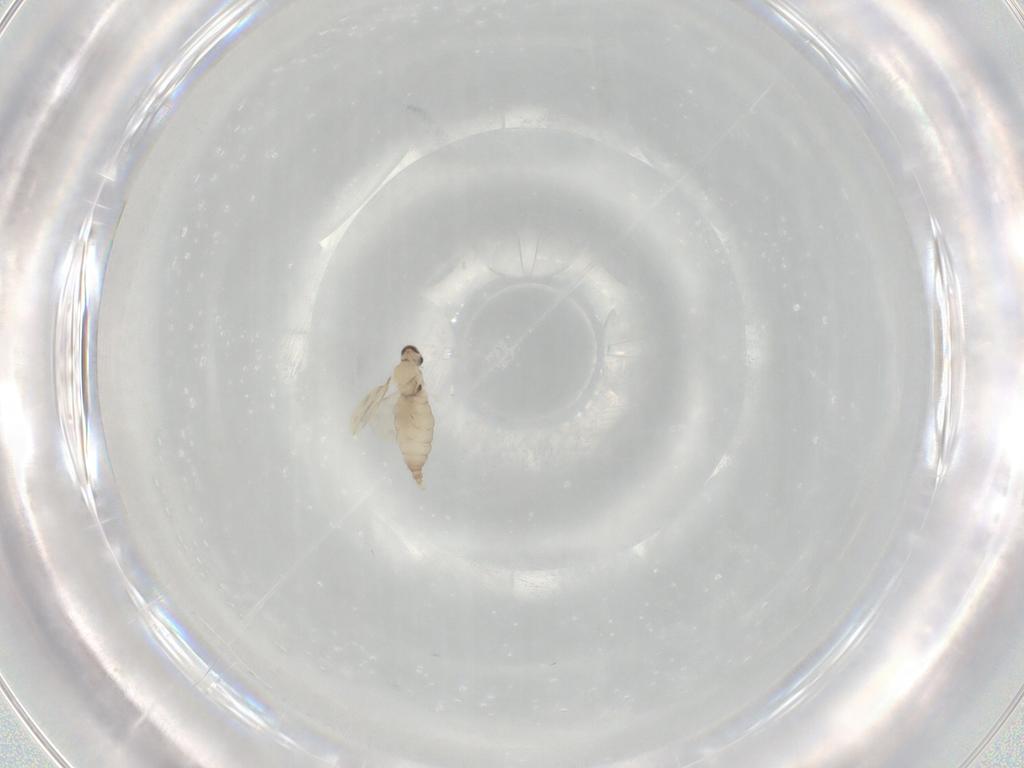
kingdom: Animalia
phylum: Arthropoda
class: Insecta
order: Diptera
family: Cecidomyiidae
